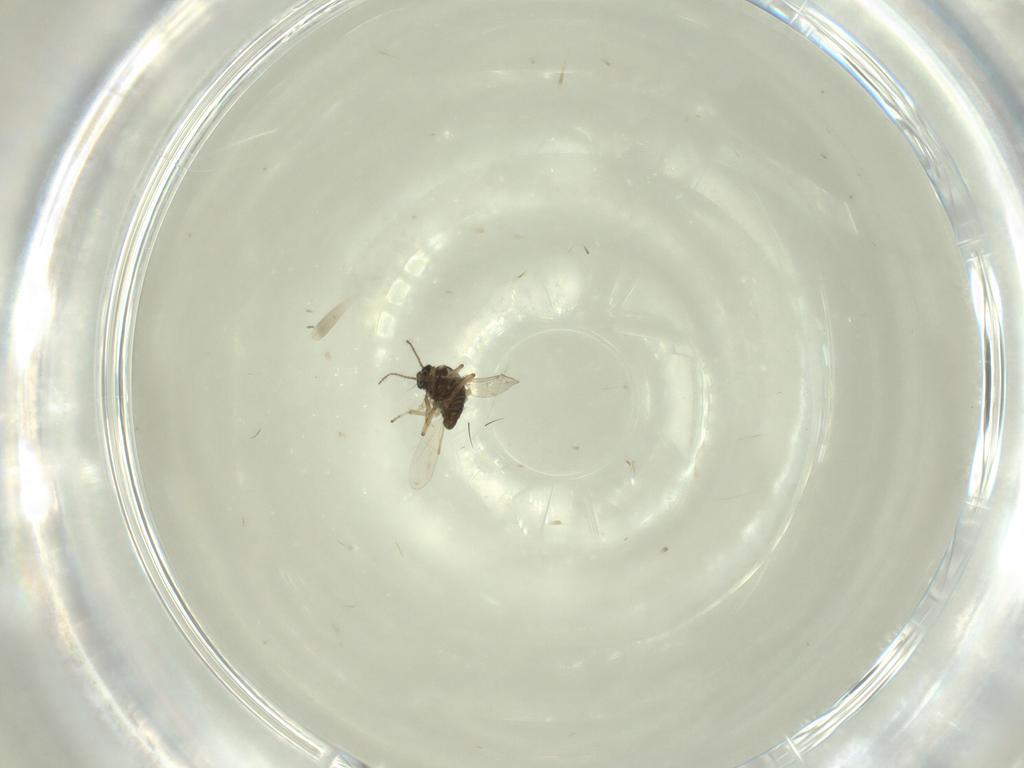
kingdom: Animalia
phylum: Arthropoda
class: Insecta
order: Diptera
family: Ceratopogonidae
